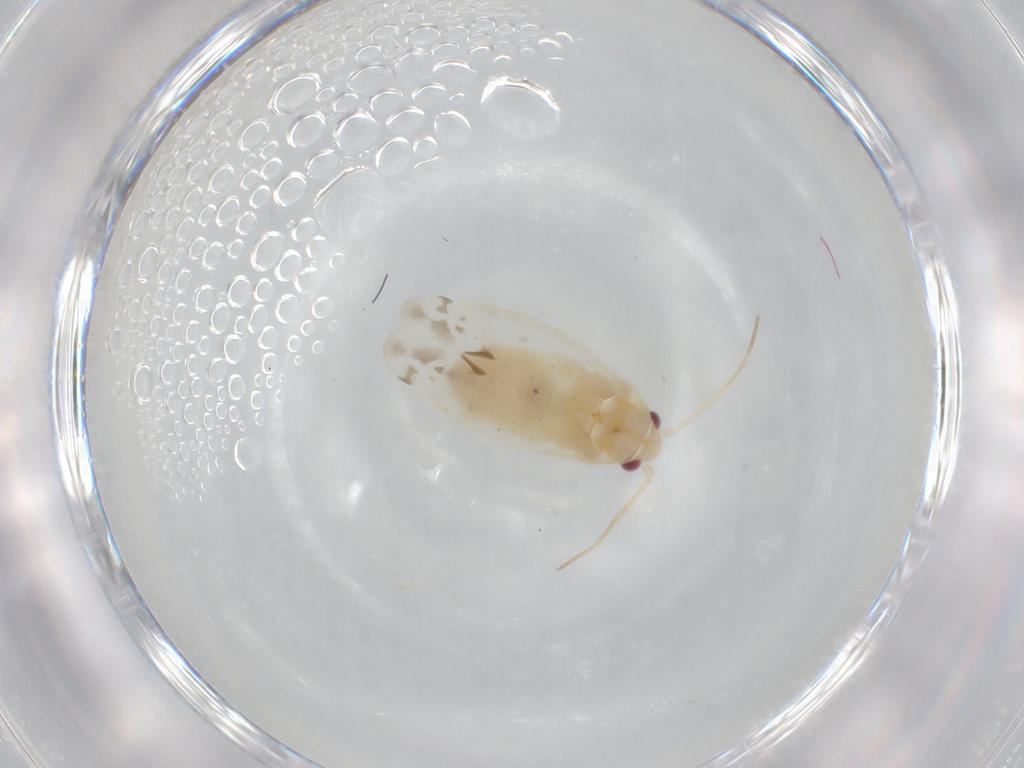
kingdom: Animalia
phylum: Arthropoda
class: Insecta
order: Hemiptera
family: Miridae
